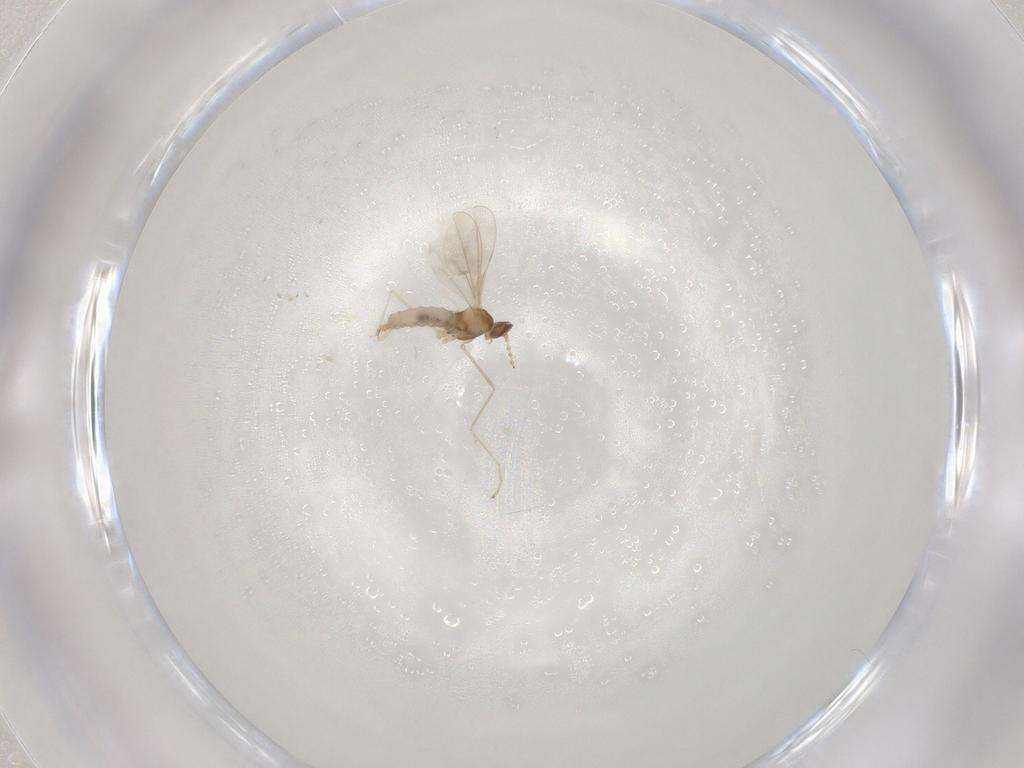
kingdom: Animalia
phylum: Arthropoda
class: Insecta
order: Diptera
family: Cecidomyiidae
